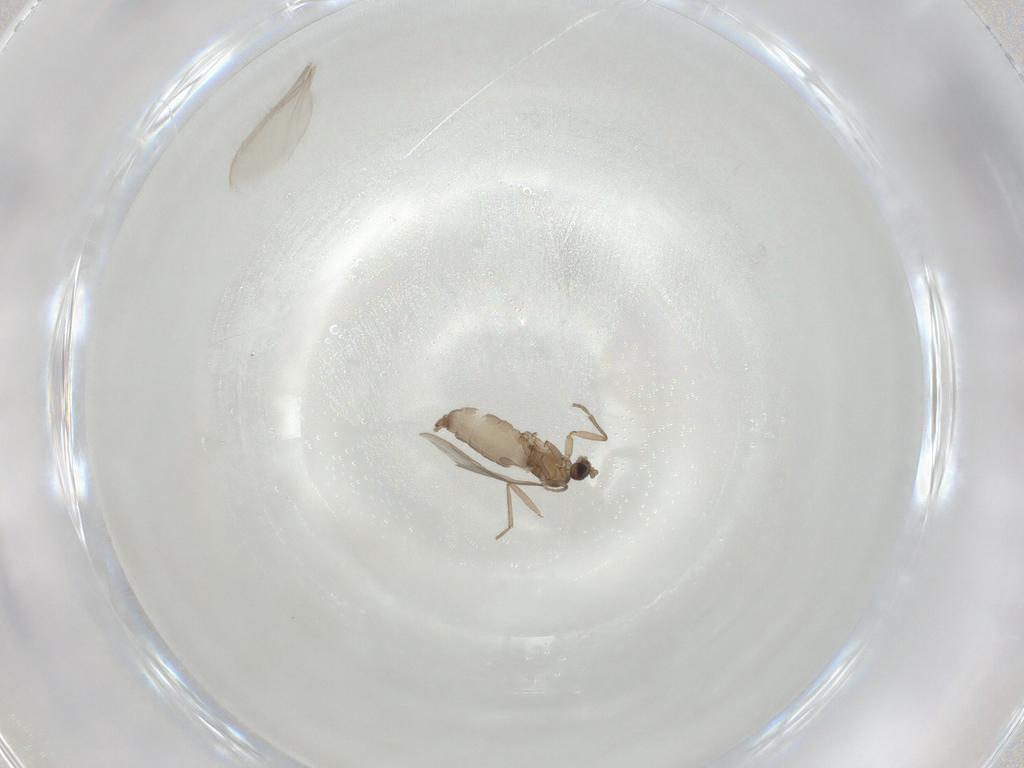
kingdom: Animalia
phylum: Arthropoda
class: Insecta
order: Diptera
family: Ceratopogonidae
